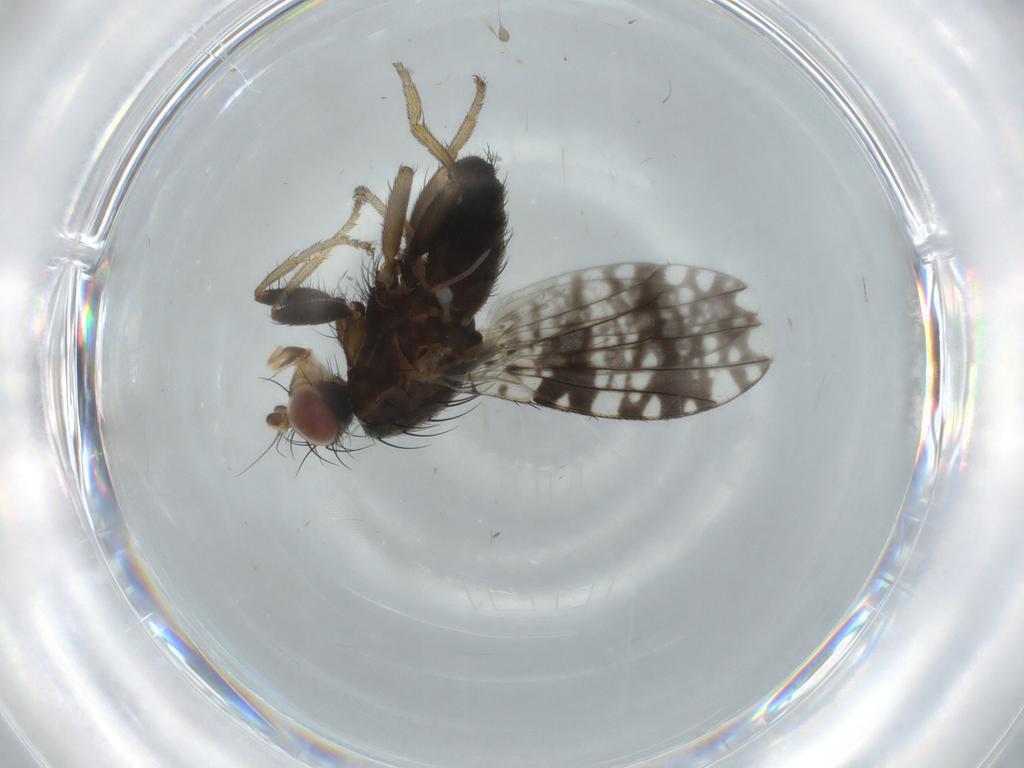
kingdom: Animalia
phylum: Arthropoda
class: Insecta
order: Diptera
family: Tephritidae
